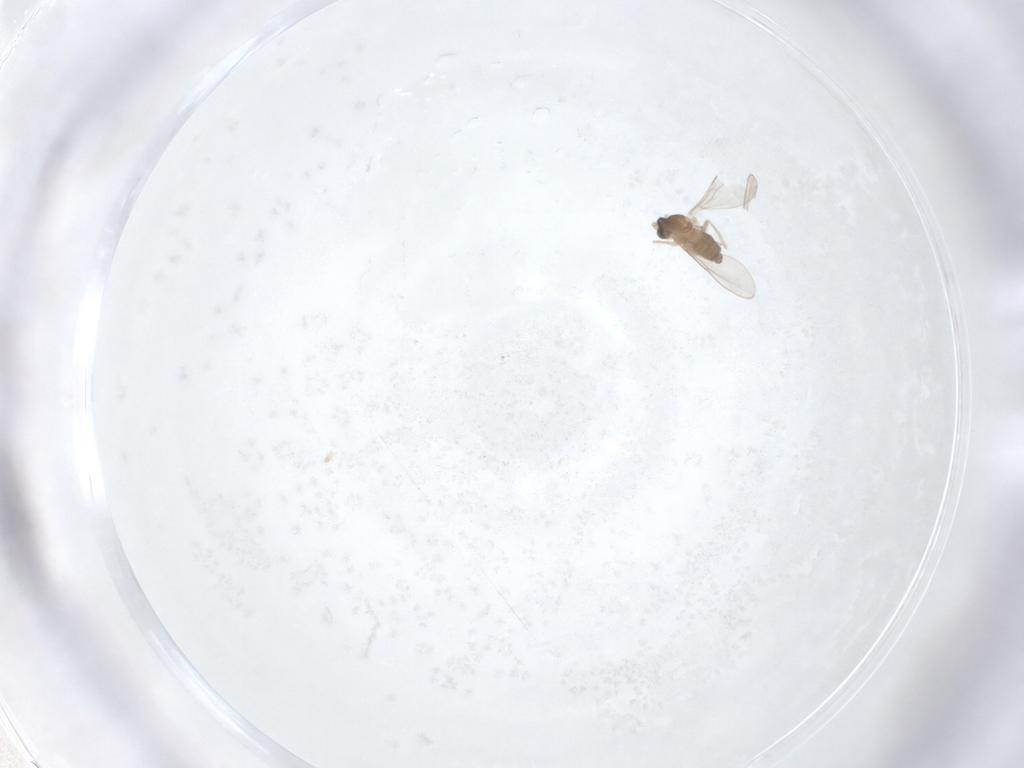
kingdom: Animalia
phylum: Arthropoda
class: Insecta
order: Diptera
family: Cecidomyiidae
